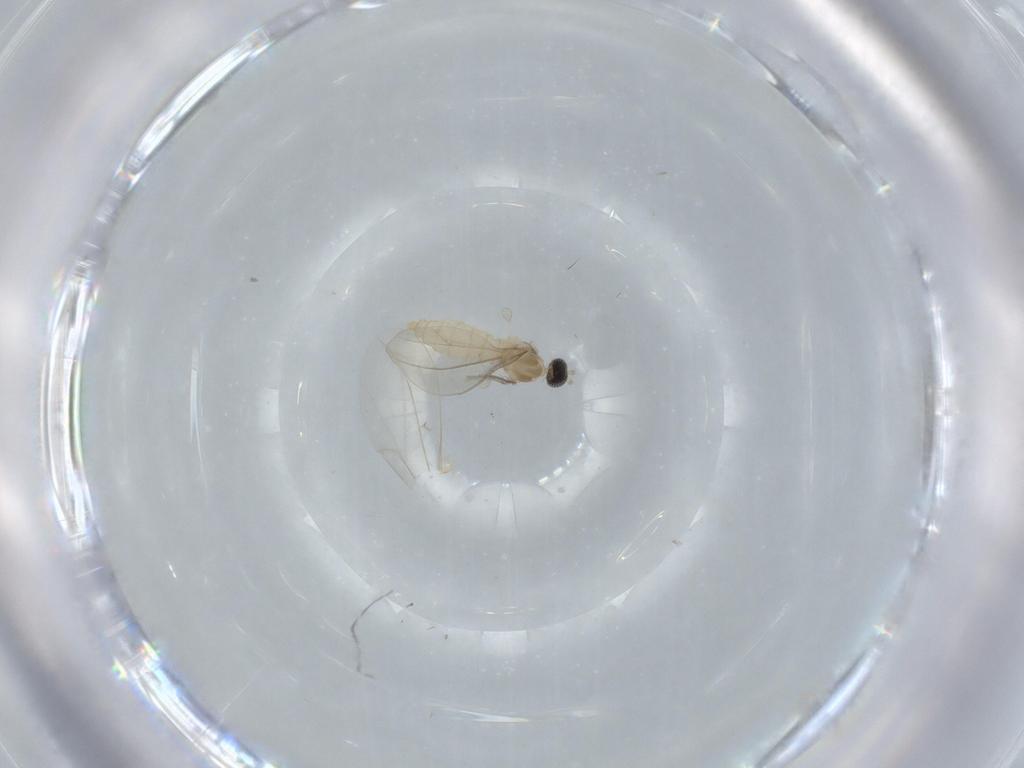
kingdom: Animalia
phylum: Arthropoda
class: Insecta
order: Diptera
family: Sciaridae
